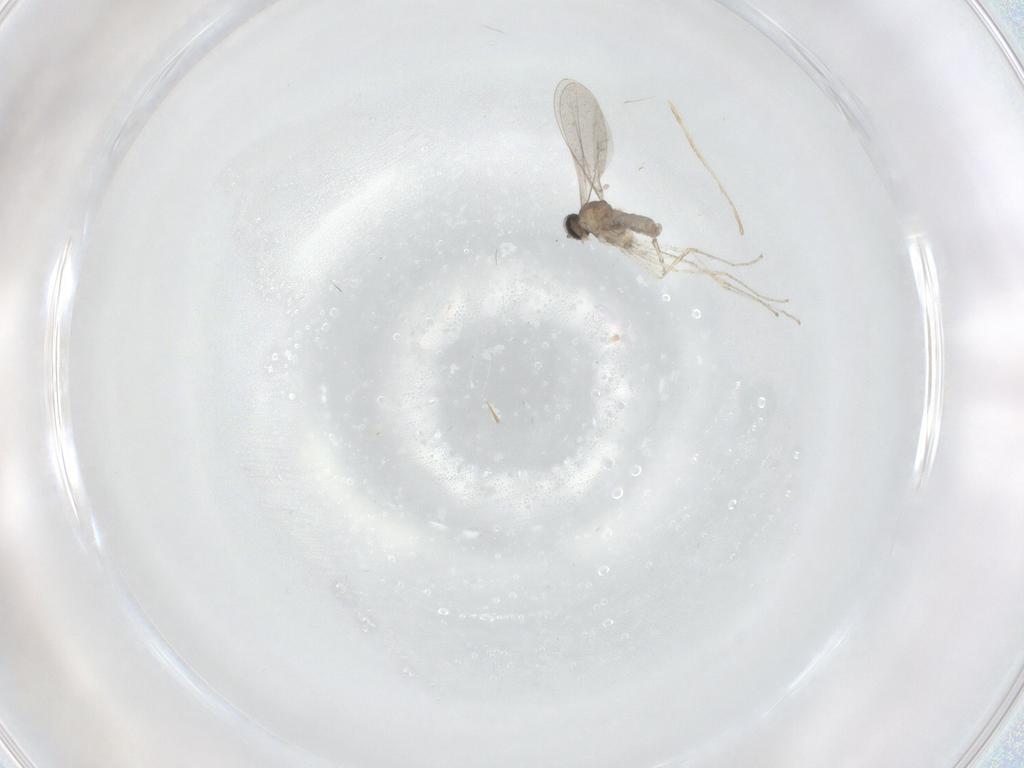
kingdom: Animalia
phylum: Arthropoda
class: Insecta
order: Diptera
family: Cecidomyiidae
